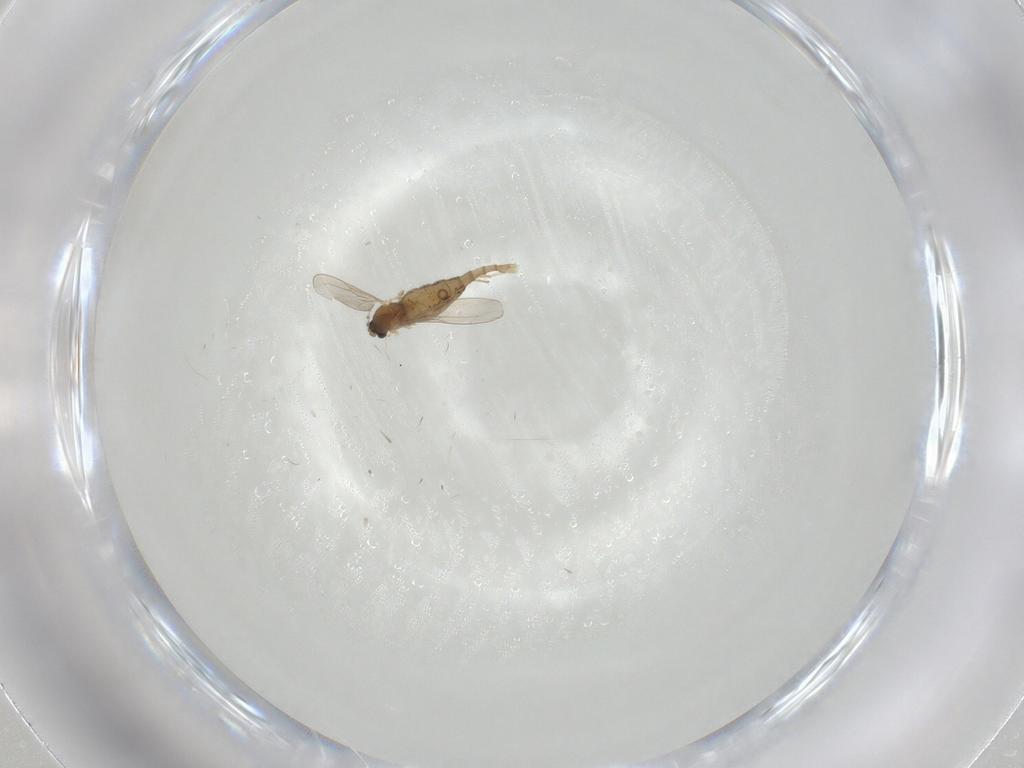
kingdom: Animalia
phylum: Arthropoda
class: Insecta
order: Diptera
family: Cecidomyiidae
